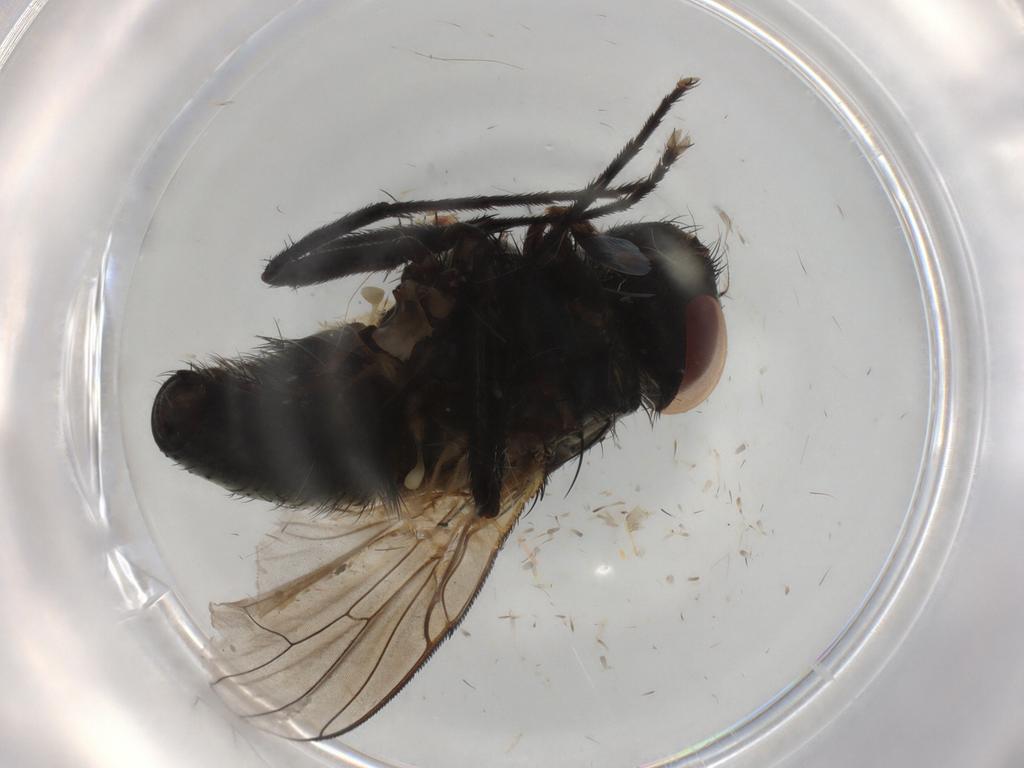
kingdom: Animalia
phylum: Arthropoda
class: Insecta
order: Diptera
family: Muscidae
